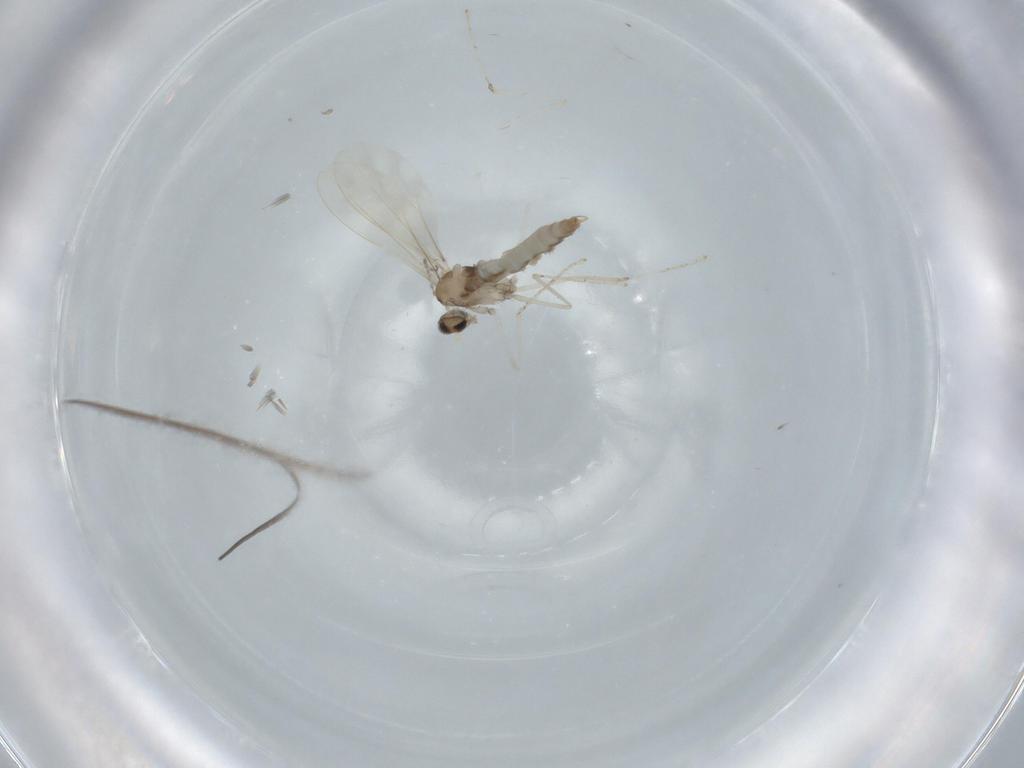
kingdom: Animalia
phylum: Arthropoda
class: Insecta
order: Diptera
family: Cecidomyiidae
